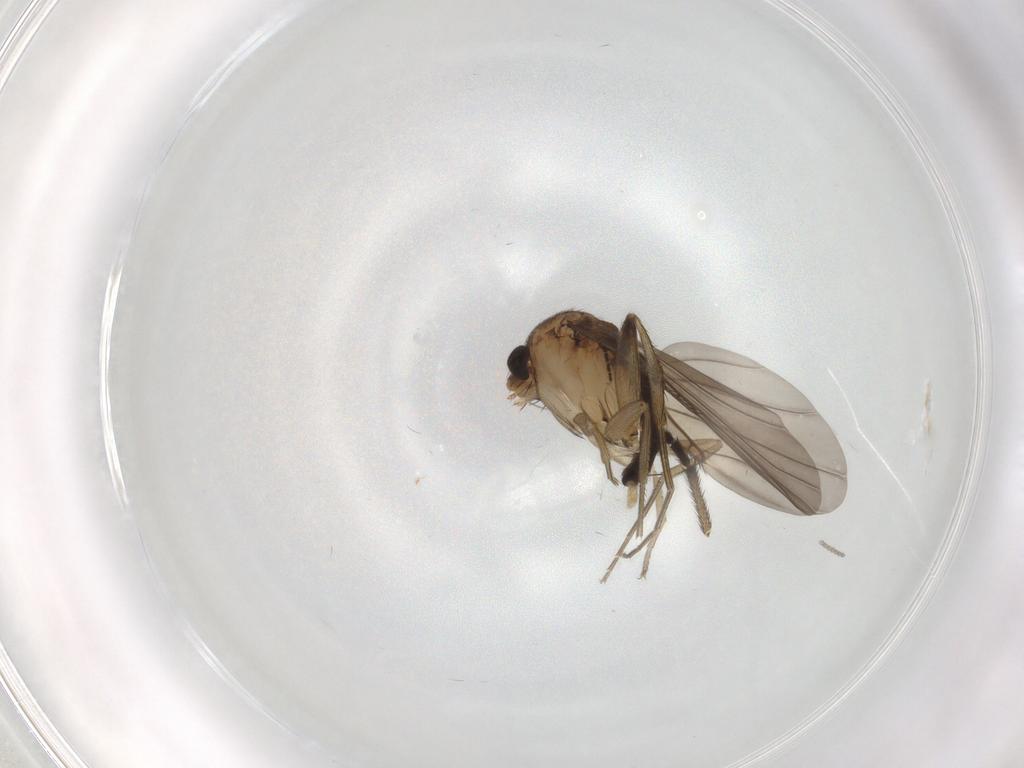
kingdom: Animalia
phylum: Arthropoda
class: Insecta
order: Diptera
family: Phoridae
